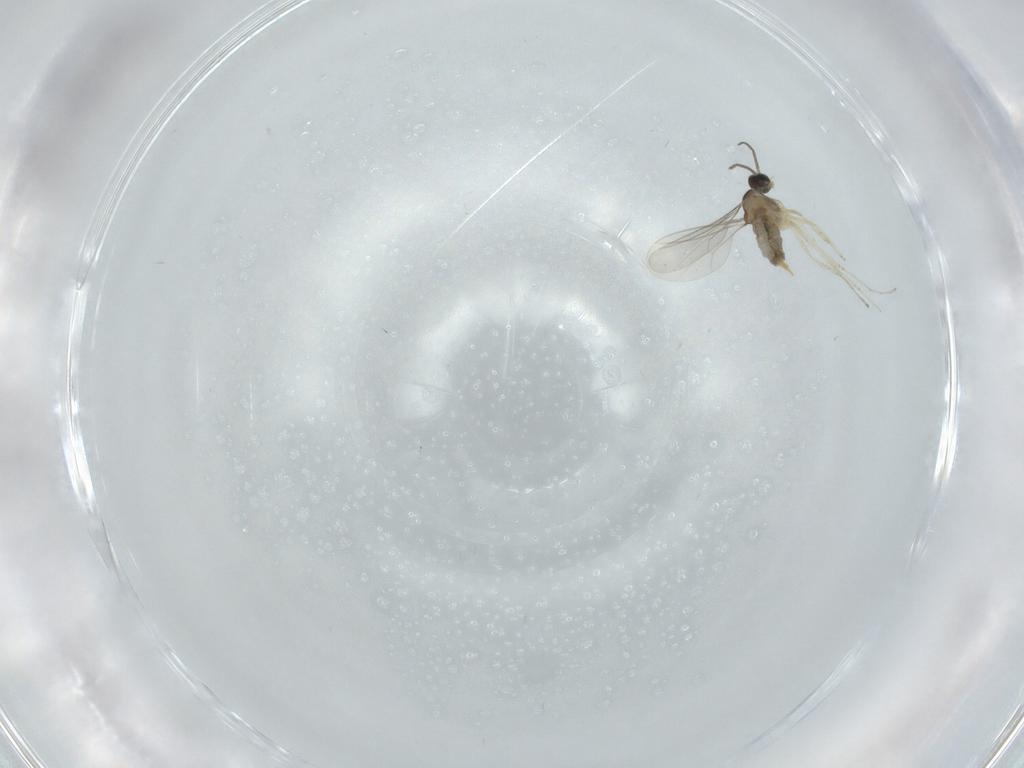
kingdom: Animalia
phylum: Arthropoda
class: Insecta
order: Diptera
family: Cecidomyiidae
